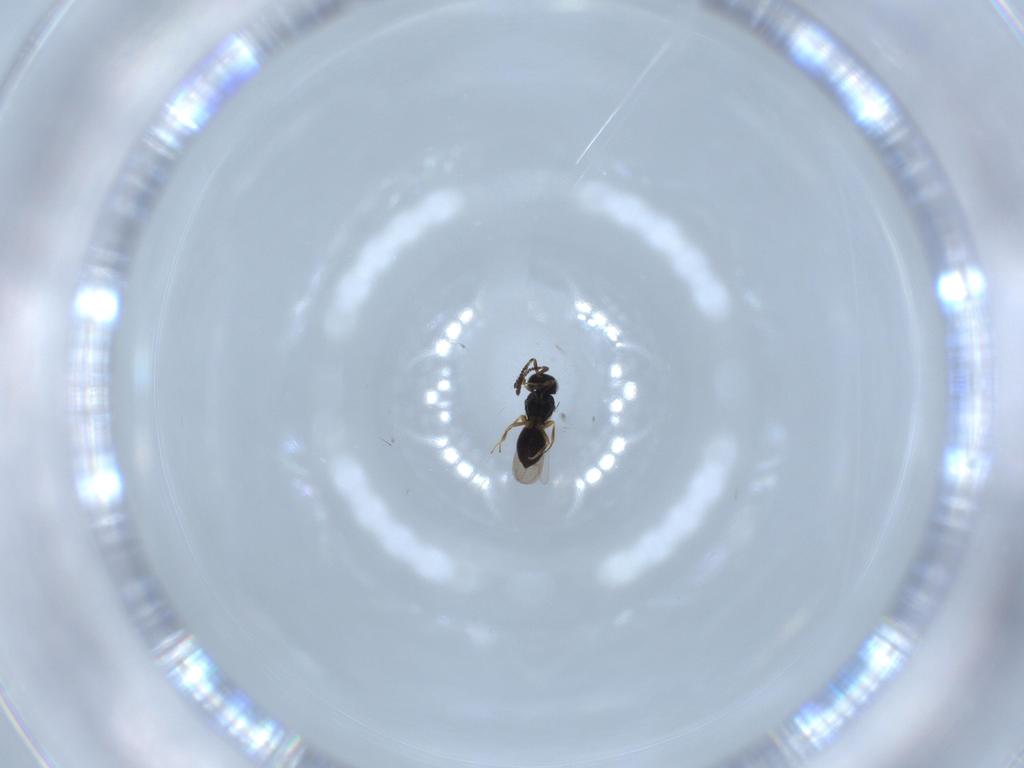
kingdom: Animalia
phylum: Arthropoda
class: Insecta
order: Hymenoptera
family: Scelionidae
